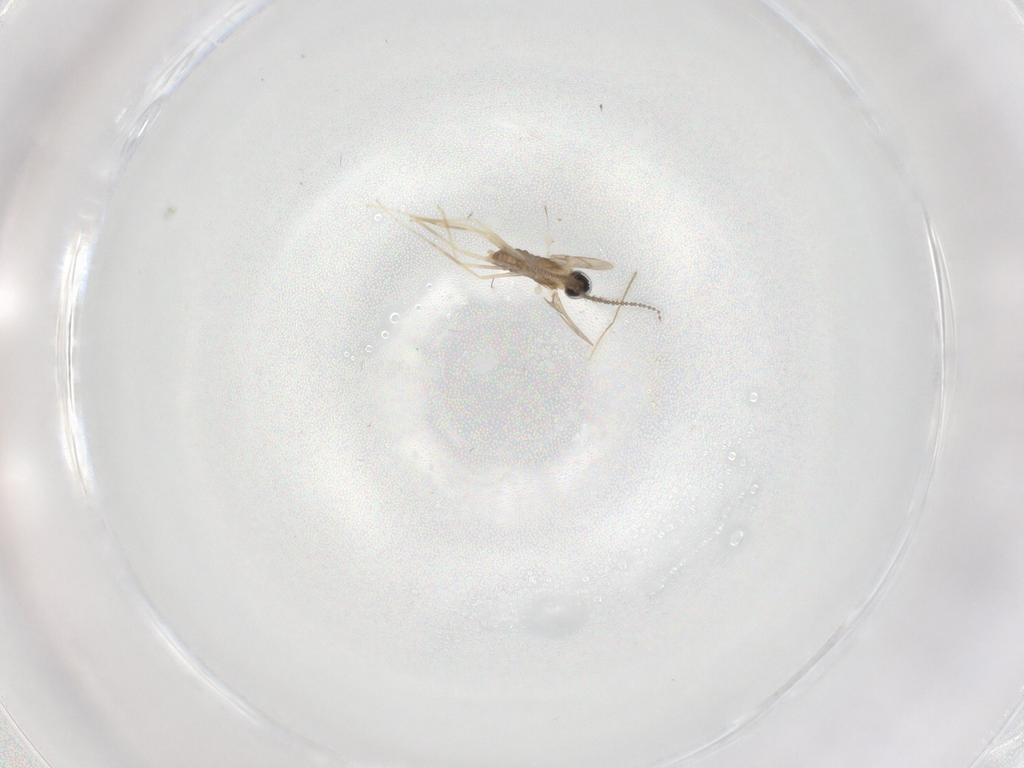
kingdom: Animalia
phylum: Arthropoda
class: Insecta
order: Diptera
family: Cecidomyiidae
